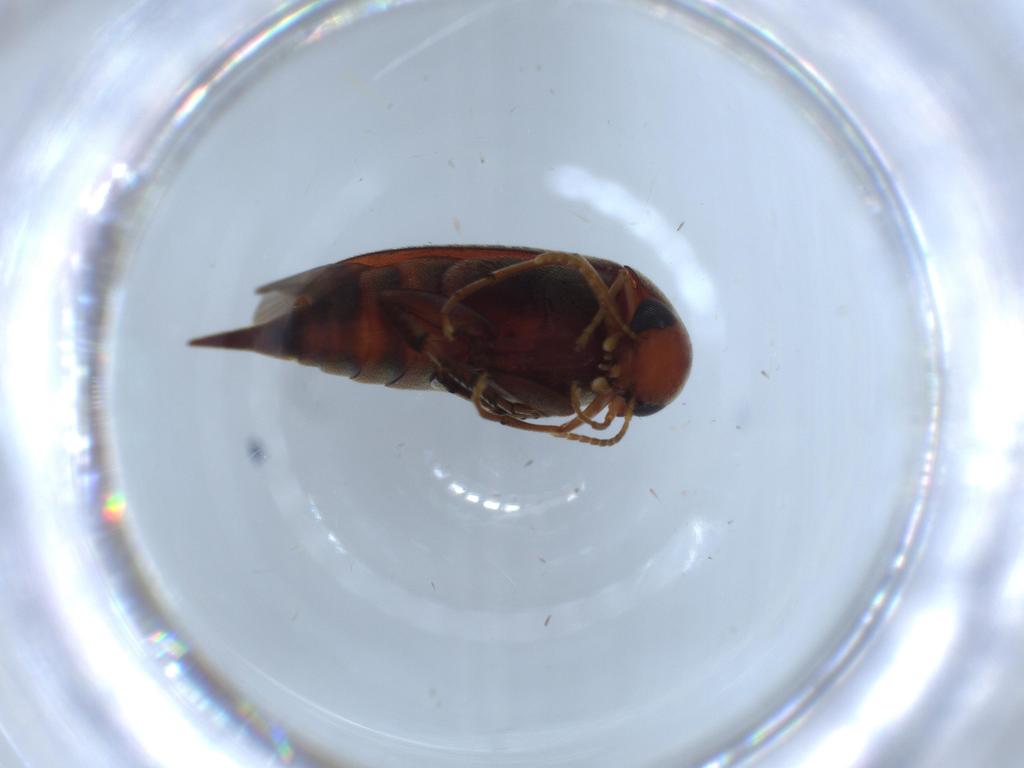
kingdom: Animalia
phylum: Arthropoda
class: Insecta
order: Coleoptera
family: Bostrichidae
